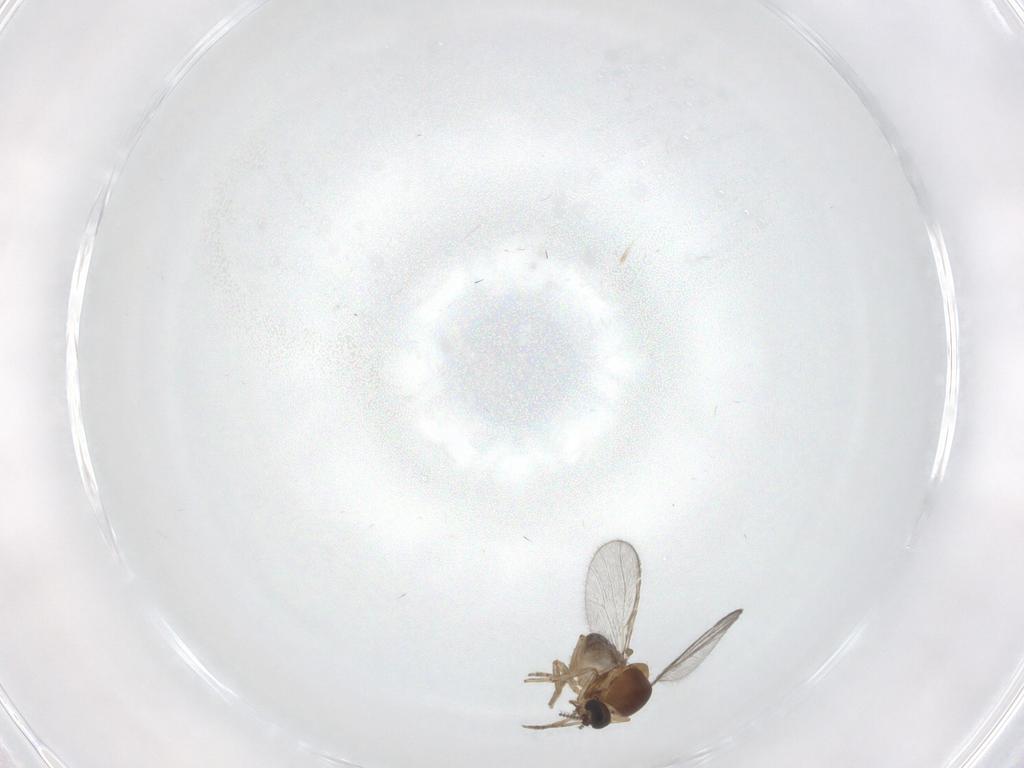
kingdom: Animalia
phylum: Arthropoda
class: Insecta
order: Diptera
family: Ceratopogonidae
